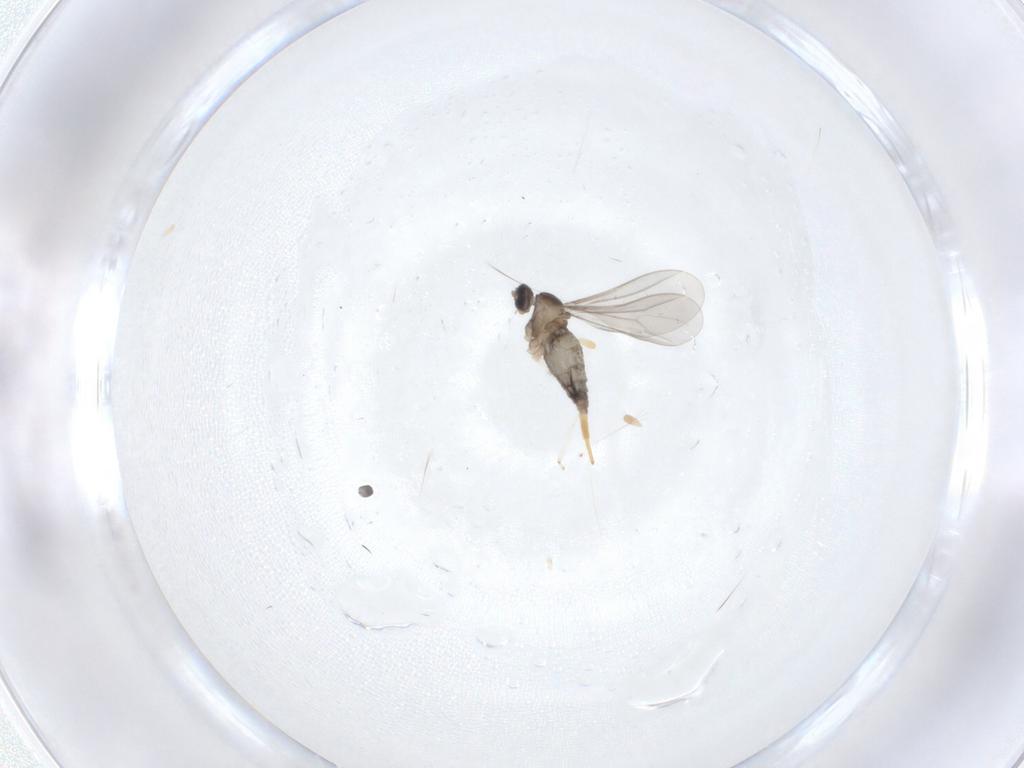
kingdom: Animalia
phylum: Arthropoda
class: Insecta
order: Diptera
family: Cecidomyiidae
